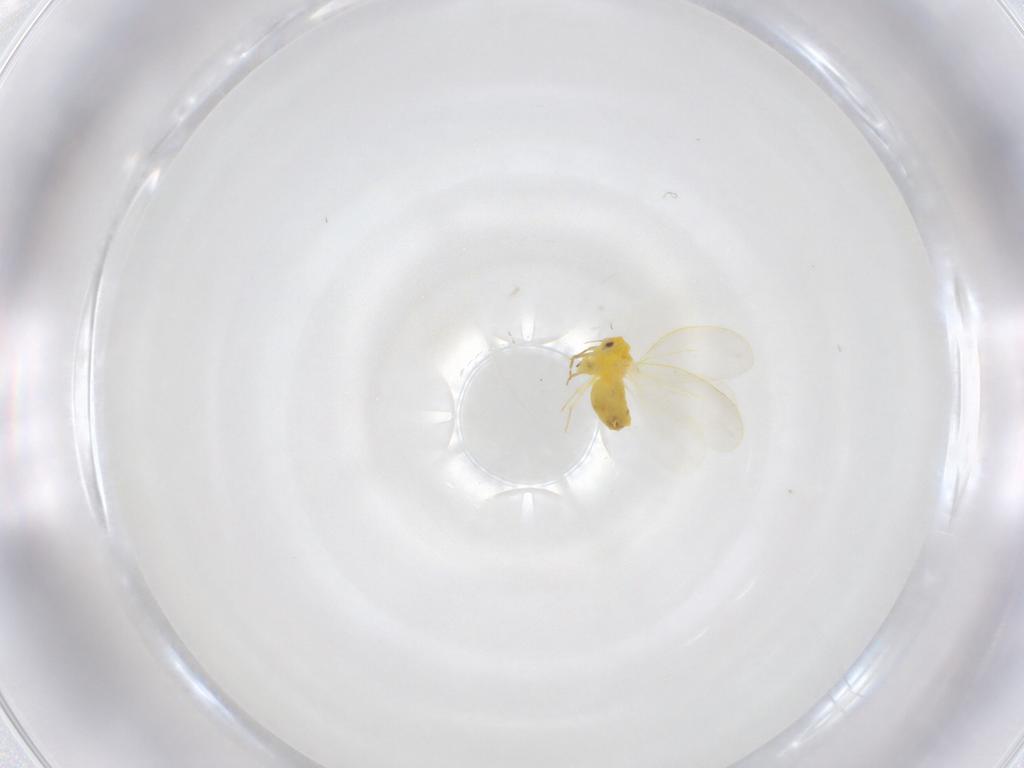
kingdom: Animalia
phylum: Arthropoda
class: Insecta
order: Hemiptera
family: Aleyrodidae
